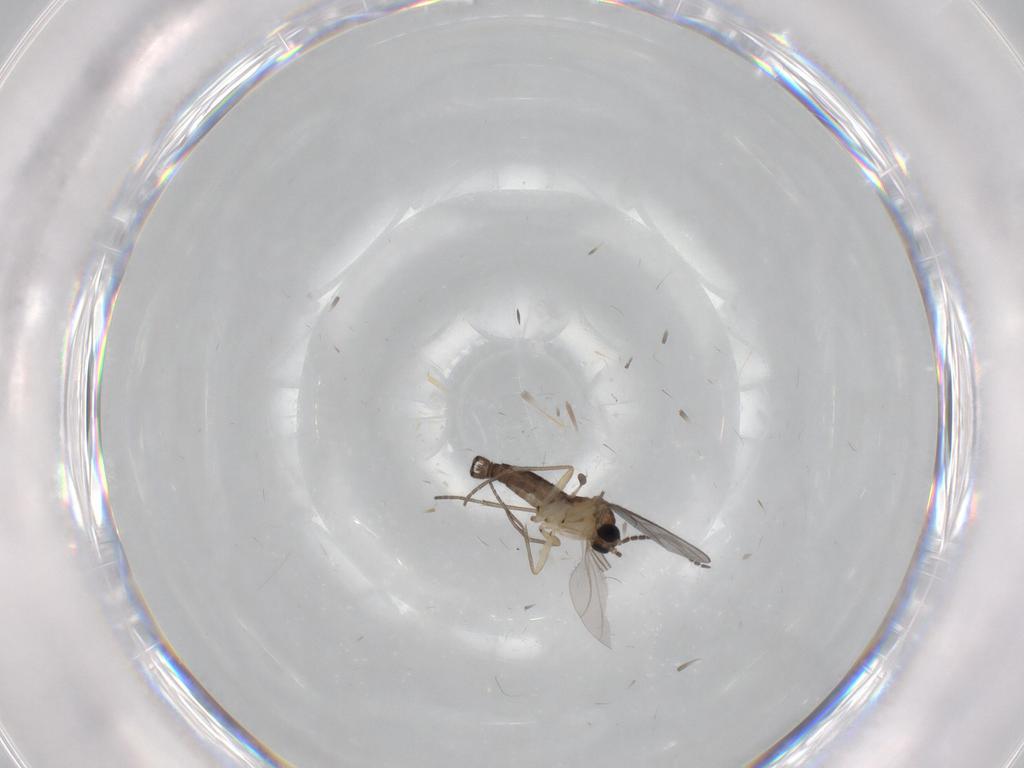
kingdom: Animalia
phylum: Arthropoda
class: Insecta
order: Diptera
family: Sciaridae
